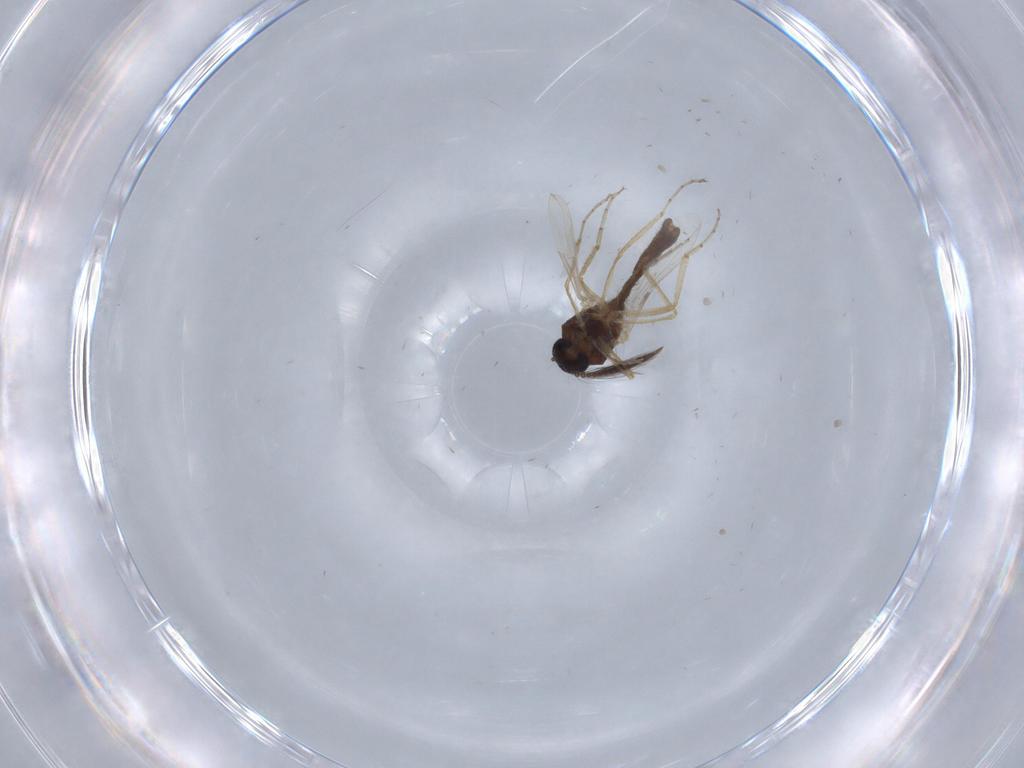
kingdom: Animalia
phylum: Arthropoda
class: Insecta
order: Diptera
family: Ceratopogonidae
